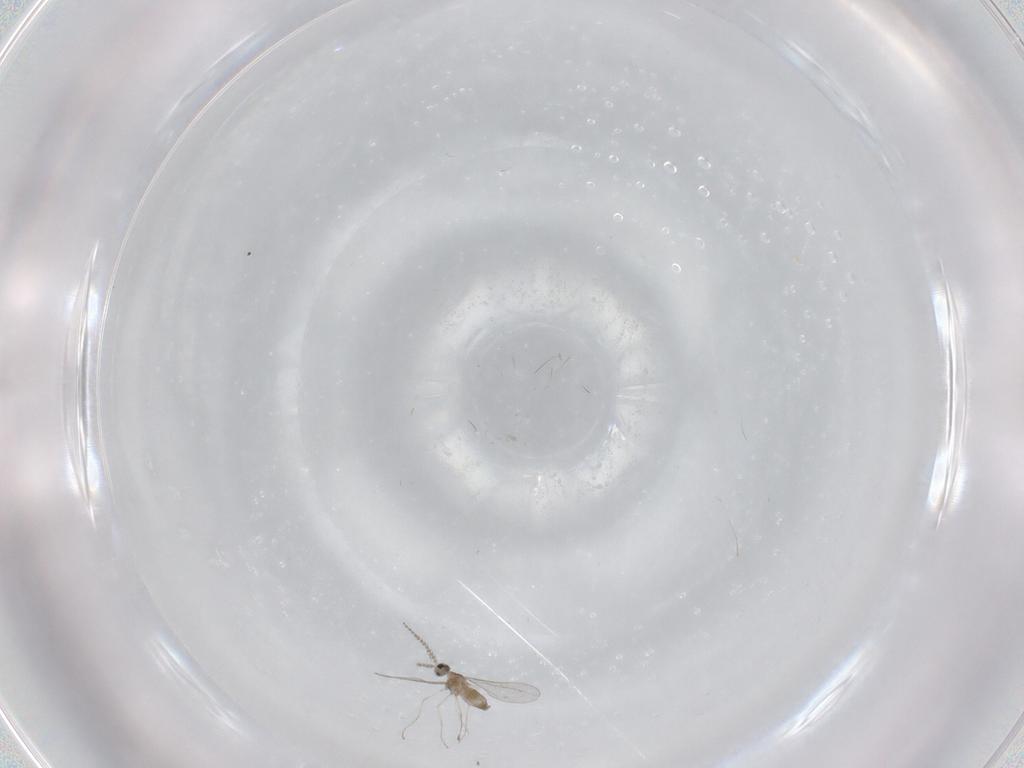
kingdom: Animalia
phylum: Arthropoda
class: Insecta
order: Diptera
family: Cecidomyiidae
